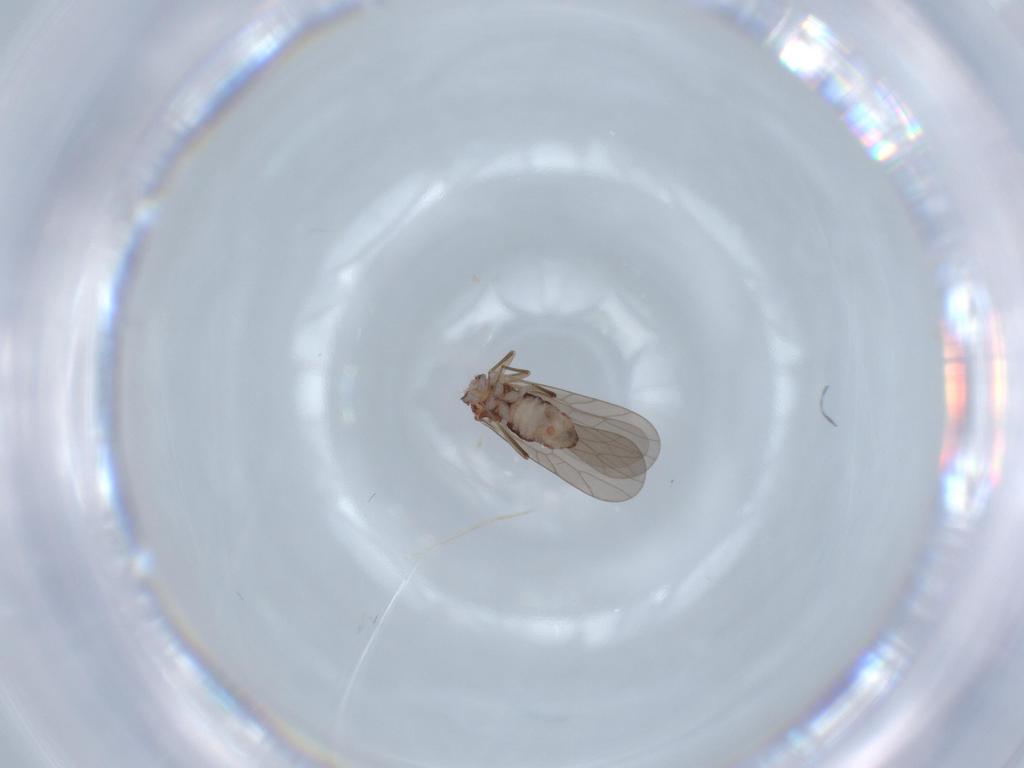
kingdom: Animalia
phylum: Arthropoda
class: Insecta
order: Psocodea
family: Caeciliusidae
